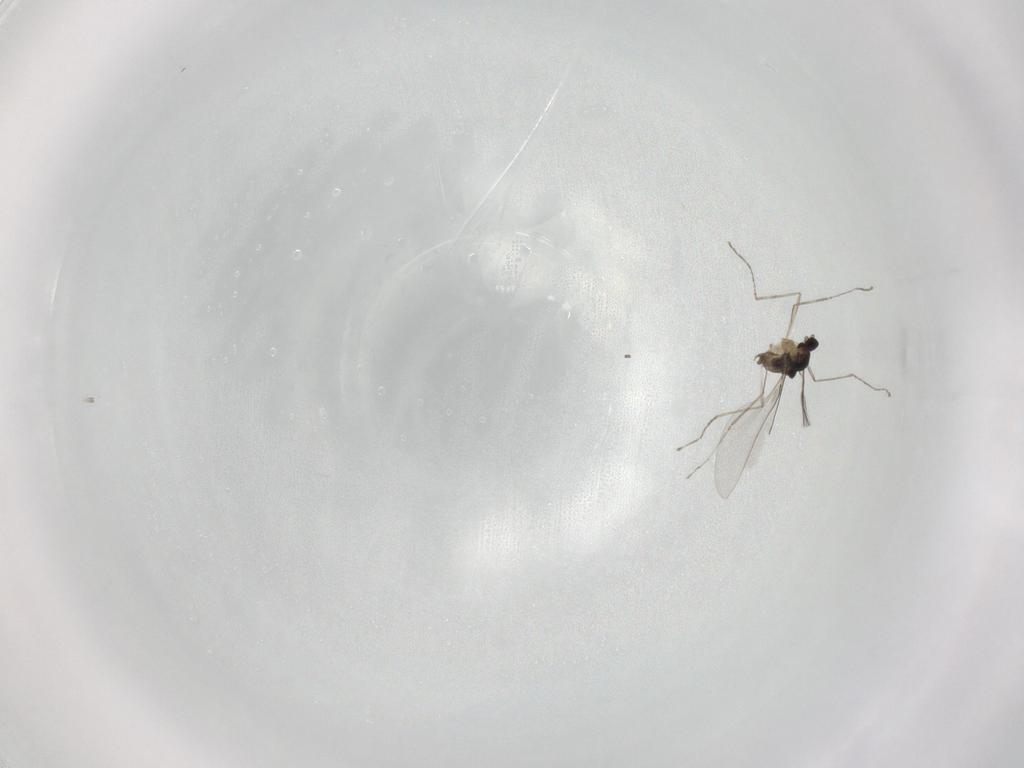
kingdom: Animalia
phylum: Arthropoda
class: Insecta
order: Diptera
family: Cecidomyiidae
